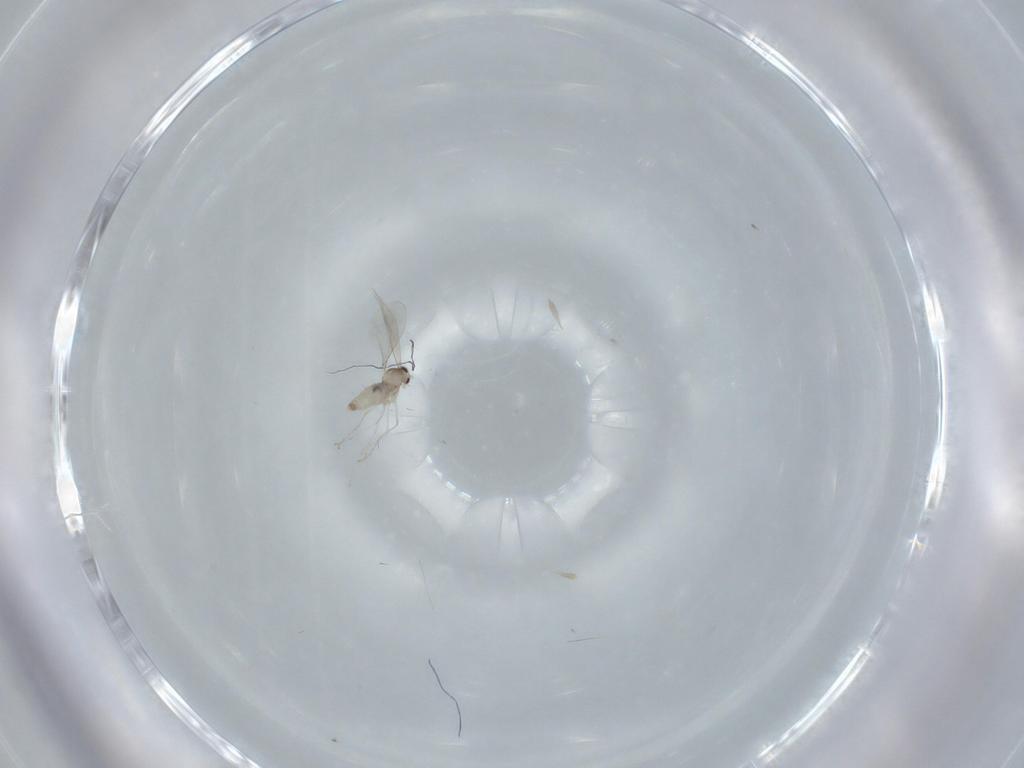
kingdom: Animalia
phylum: Arthropoda
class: Insecta
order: Diptera
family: Cecidomyiidae
